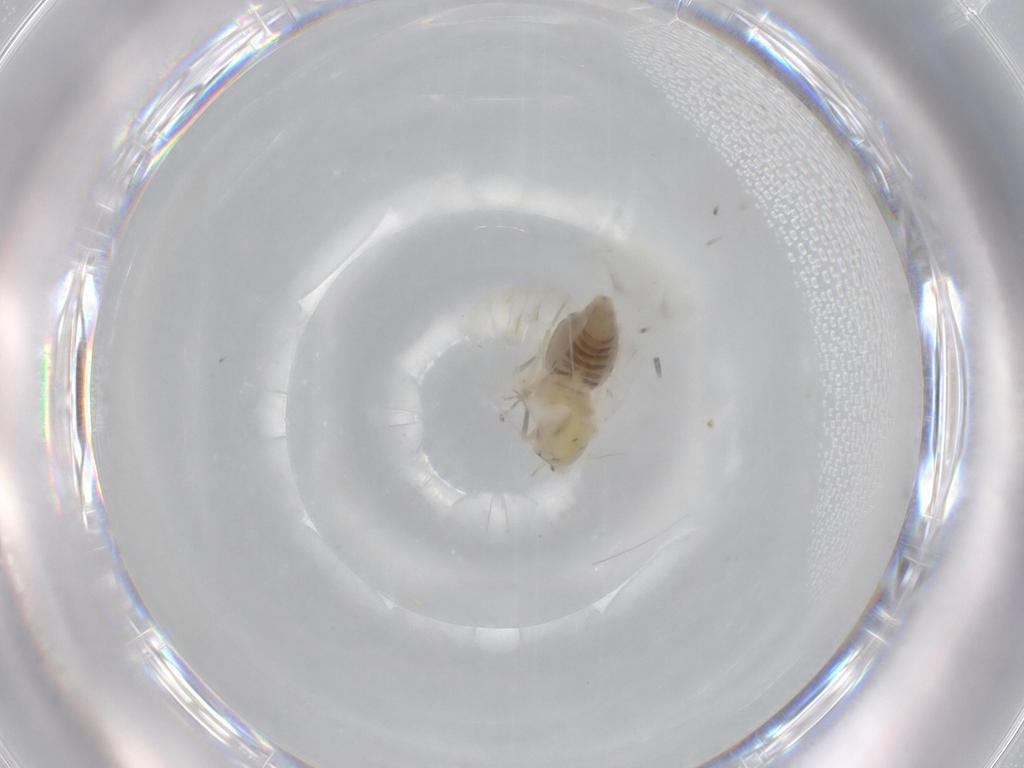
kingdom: Animalia
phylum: Arthropoda
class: Insecta
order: Hemiptera
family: Aleyrodidae
